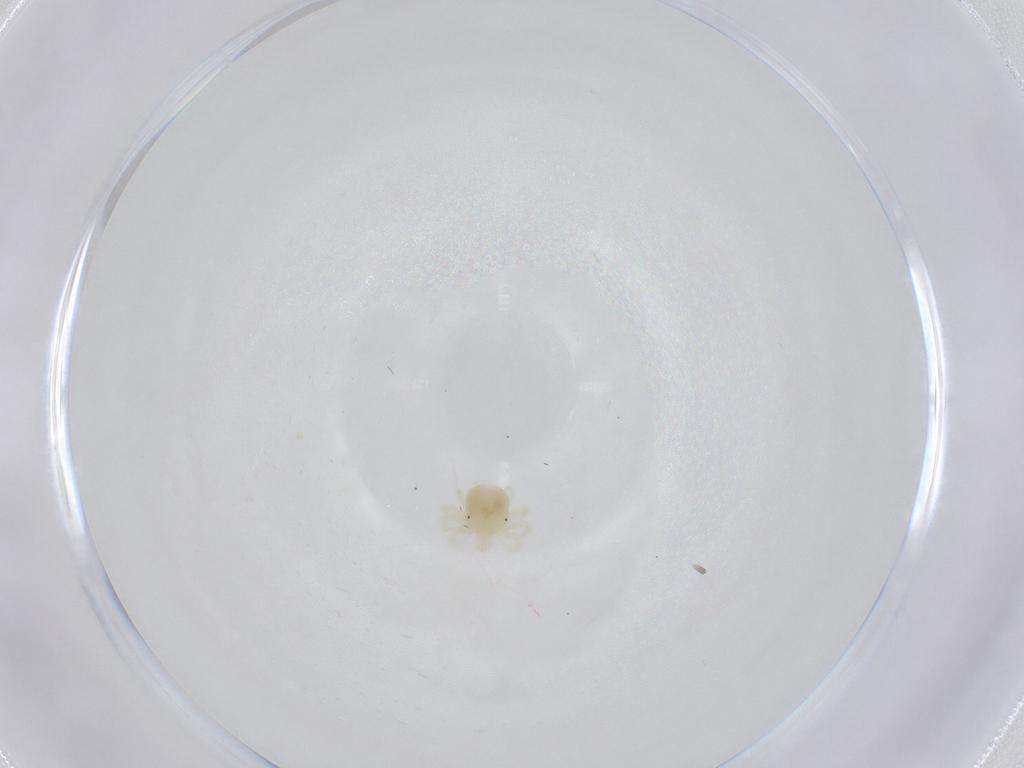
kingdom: Animalia
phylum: Arthropoda
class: Arachnida
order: Trombidiformes
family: Anystidae
